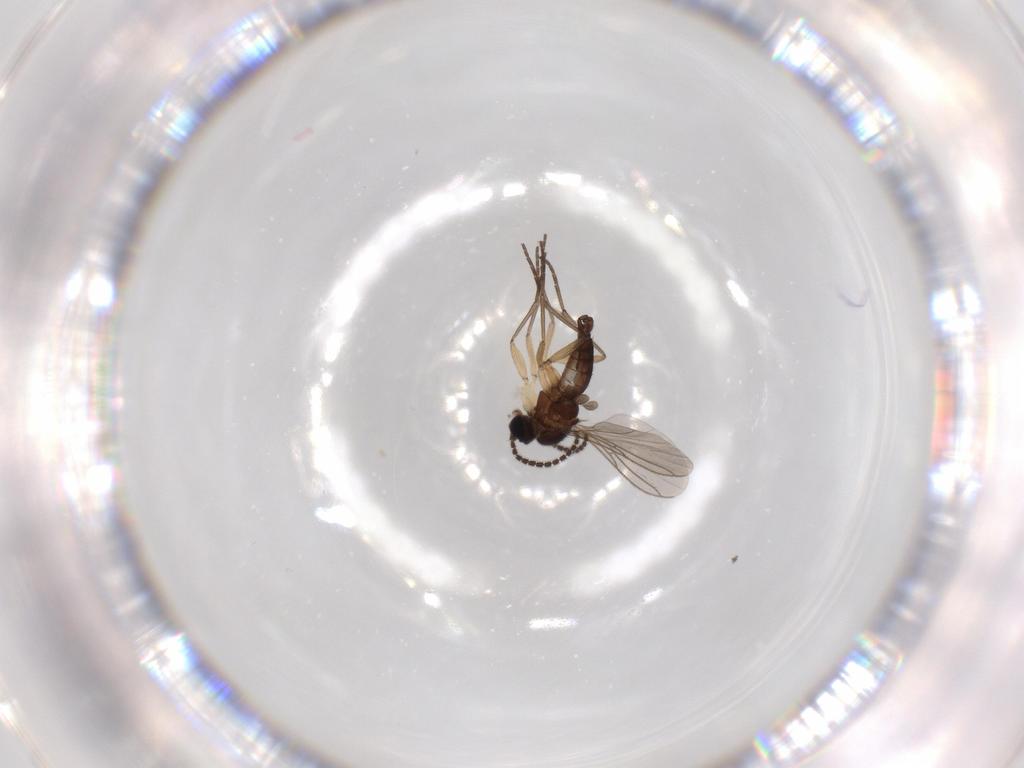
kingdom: Animalia
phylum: Arthropoda
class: Insecta
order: Diptera
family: Sciaridae
